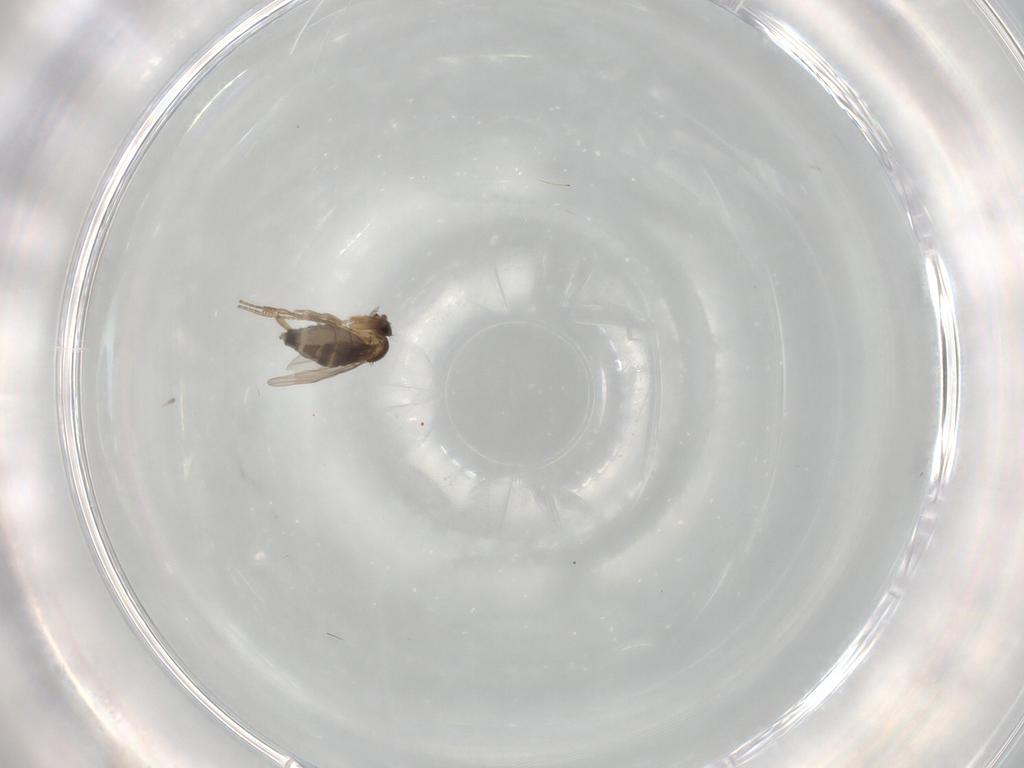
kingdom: Animalia
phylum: Arthropoda
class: Insecta
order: Diptera
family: Phoridae
